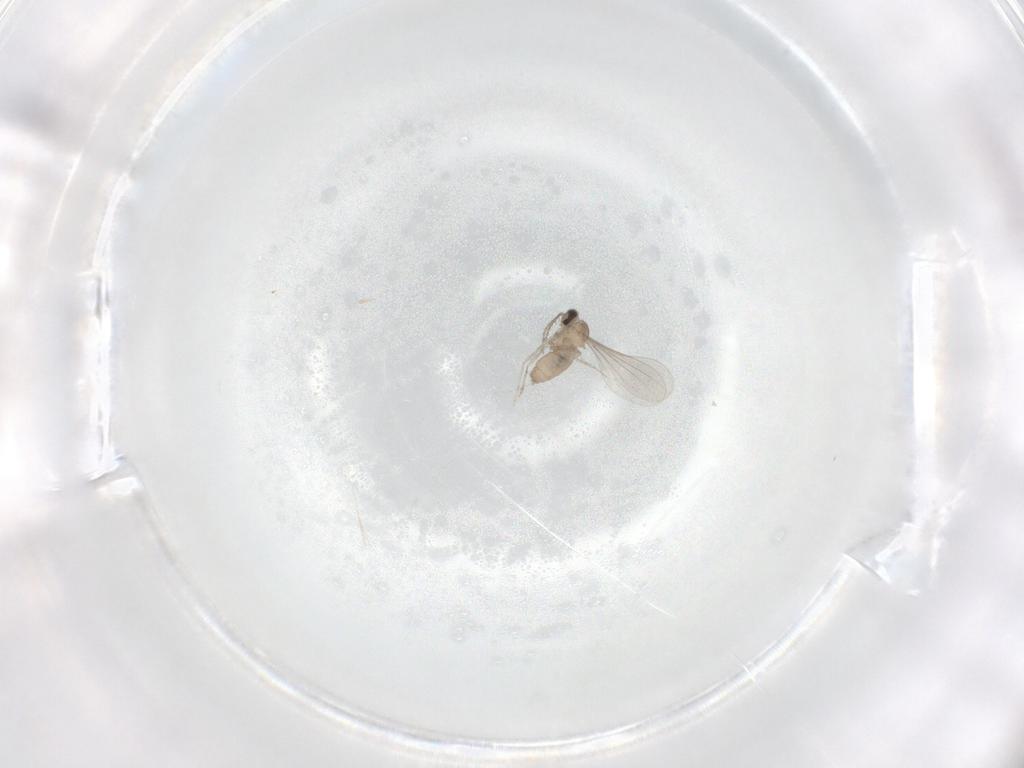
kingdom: Animalia
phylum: Arthropoda
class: Insecta
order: Diptera
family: Cecidomyiidae
